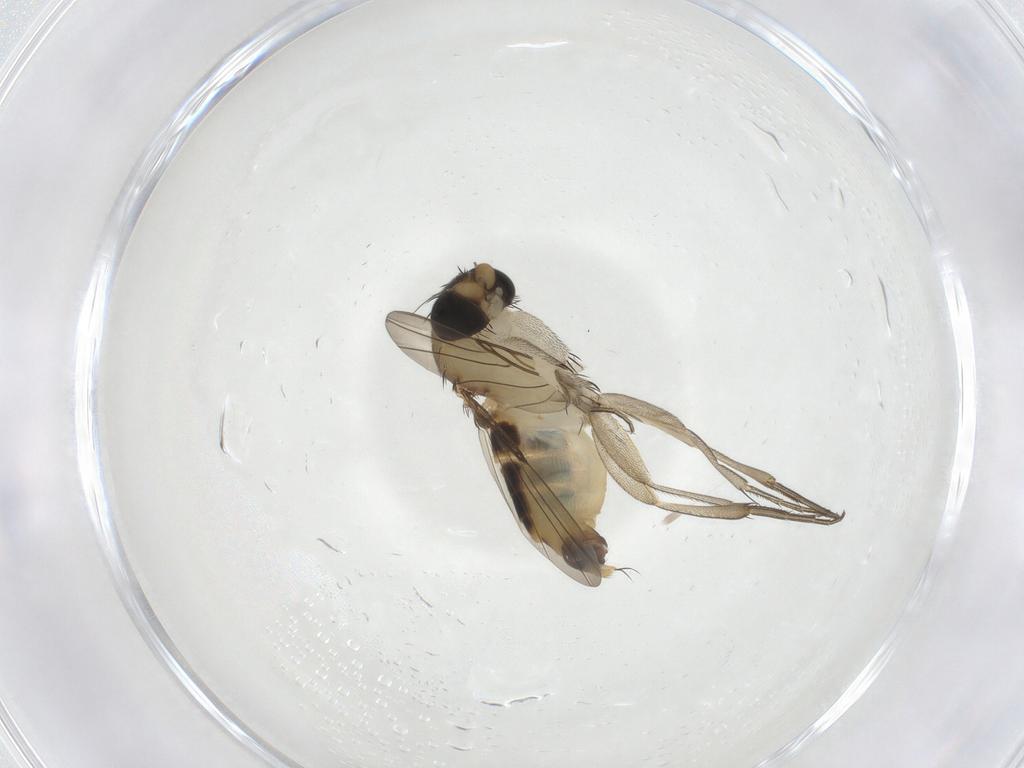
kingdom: Animalia
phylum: Arthropoda
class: Insecta
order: Diptera
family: Phoridae
